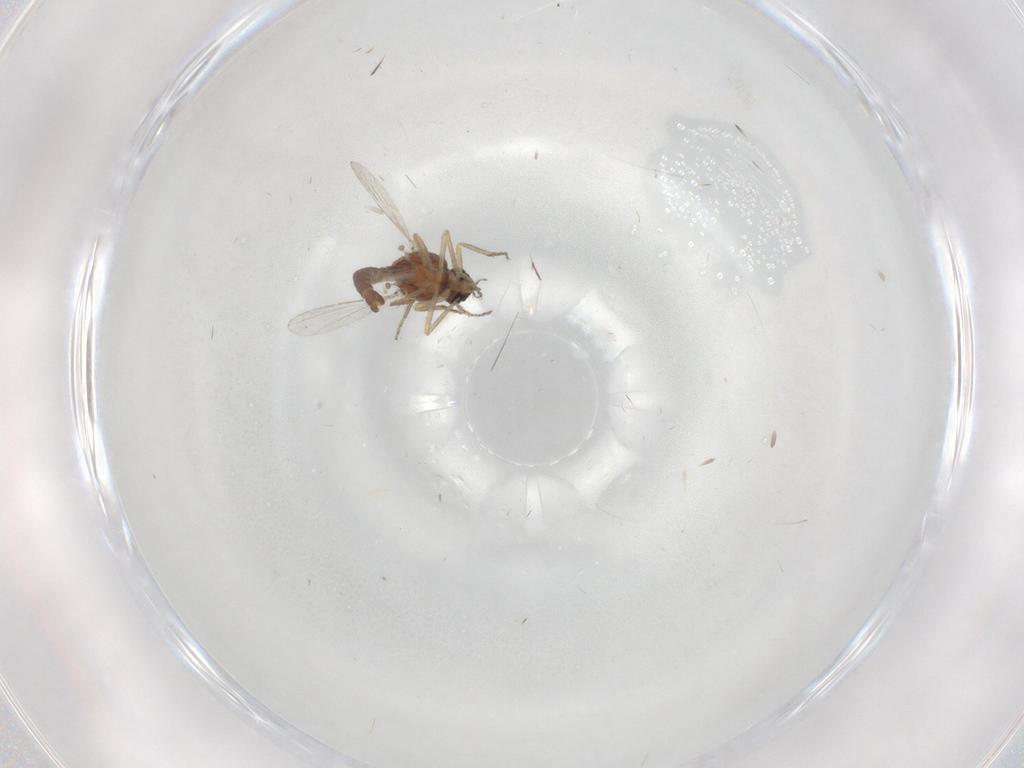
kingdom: Animalia
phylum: Arthropoda
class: Insecta
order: Diptera
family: Ceratopogonidae
